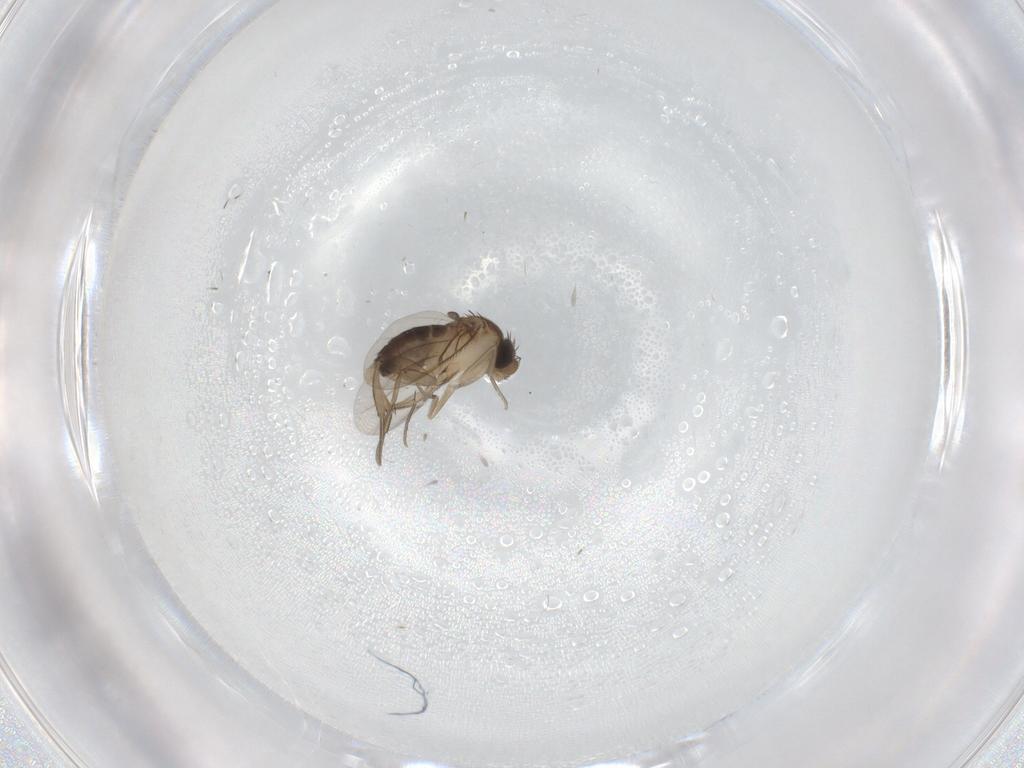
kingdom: Animalia
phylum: Arthropoda
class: Insecta
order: Diptera
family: Phoridae
